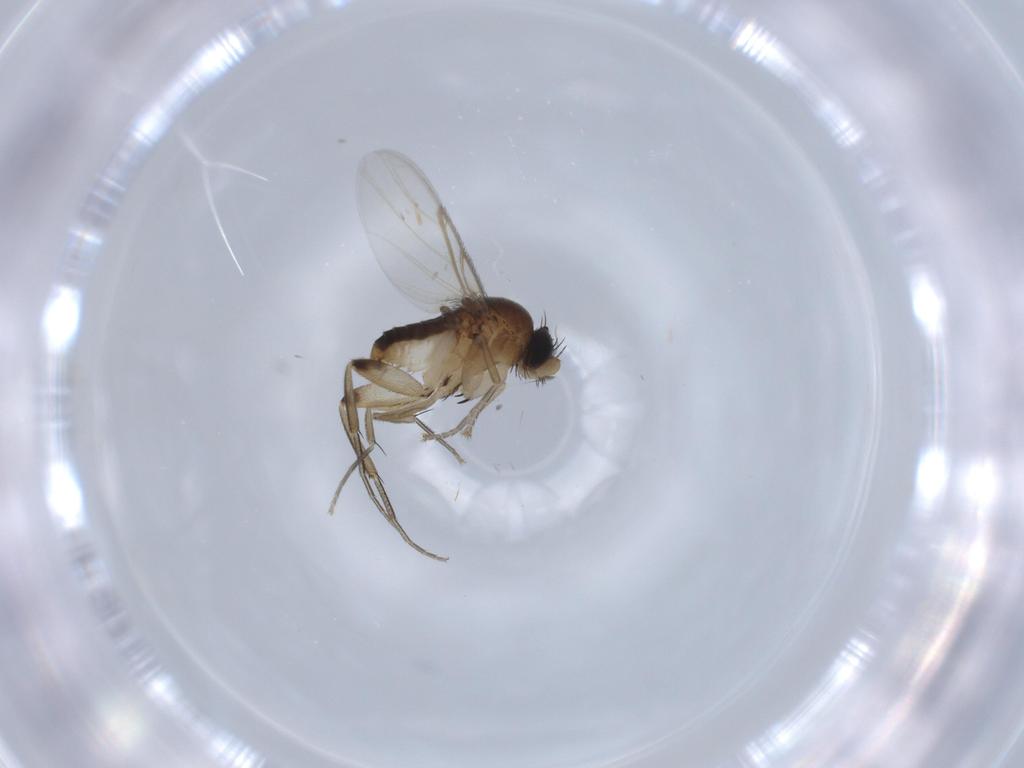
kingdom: Animalia
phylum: Arthropoda
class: Insecta
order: Diptera
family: Phoridae
